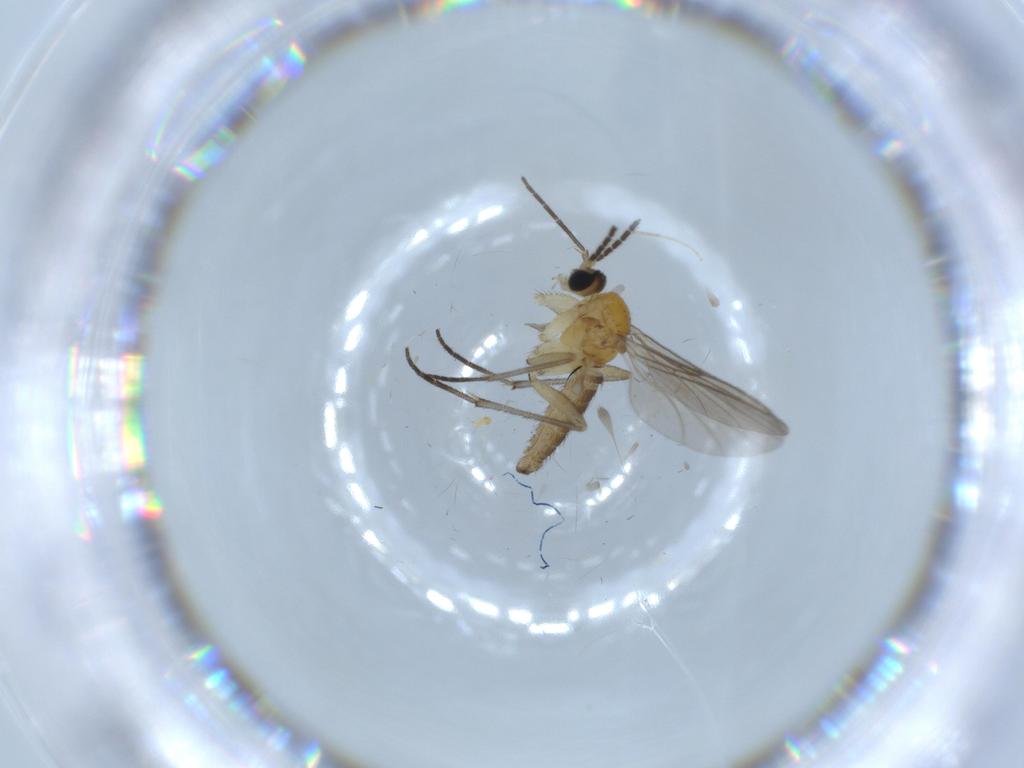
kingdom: Animalia
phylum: Arthropoda
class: Insecta
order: Diptera
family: Sciaridae
